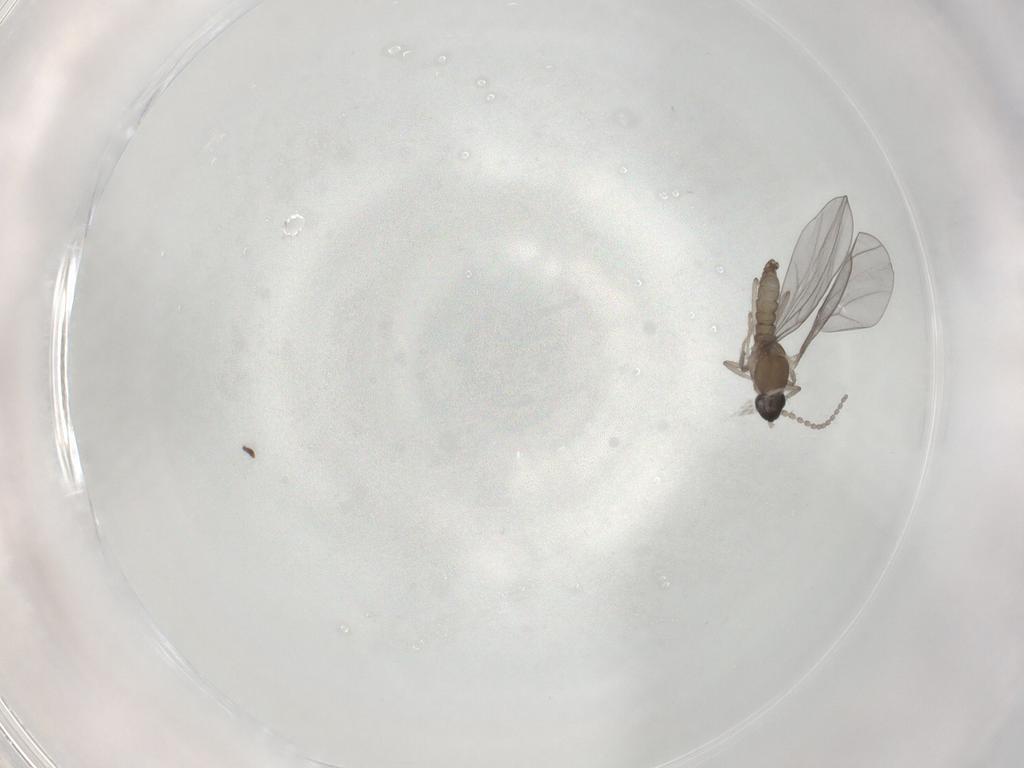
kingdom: Animalia
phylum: Arthropoda
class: Insecta
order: Diptera
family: Cecidomyiidae
